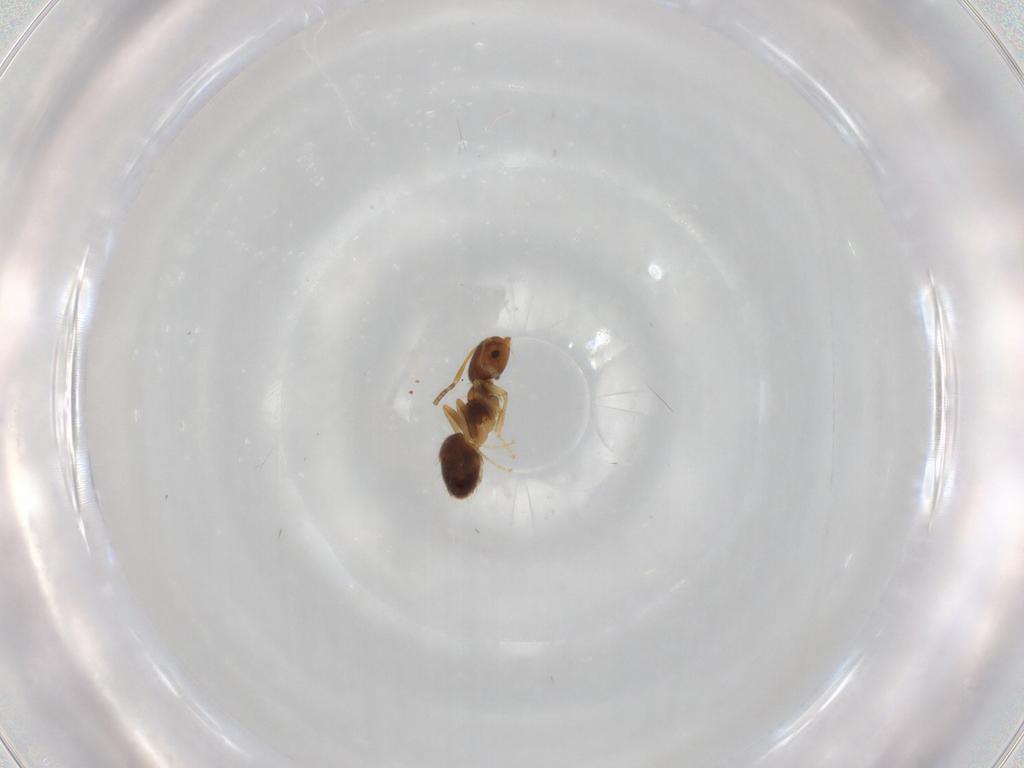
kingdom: Animalia
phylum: Arthropoda
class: Insecta
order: Hymenoptera
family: Formicidae
